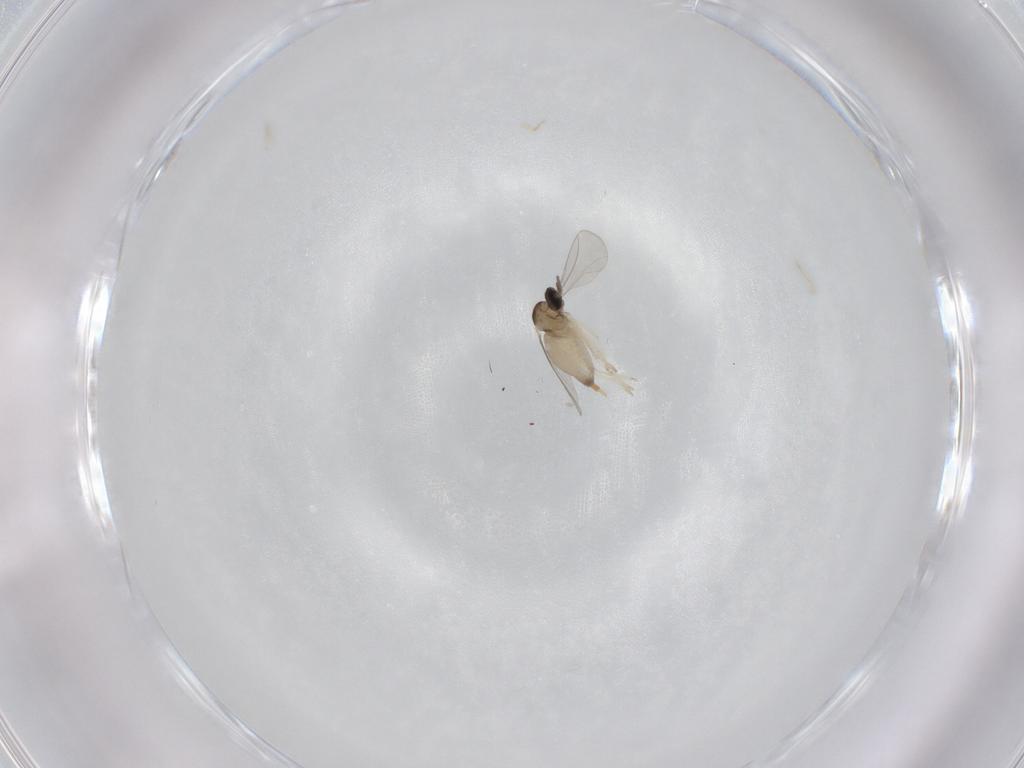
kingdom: Animalia
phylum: Arthropoda
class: Insecta
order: Diptera
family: Cecidomyiidae
